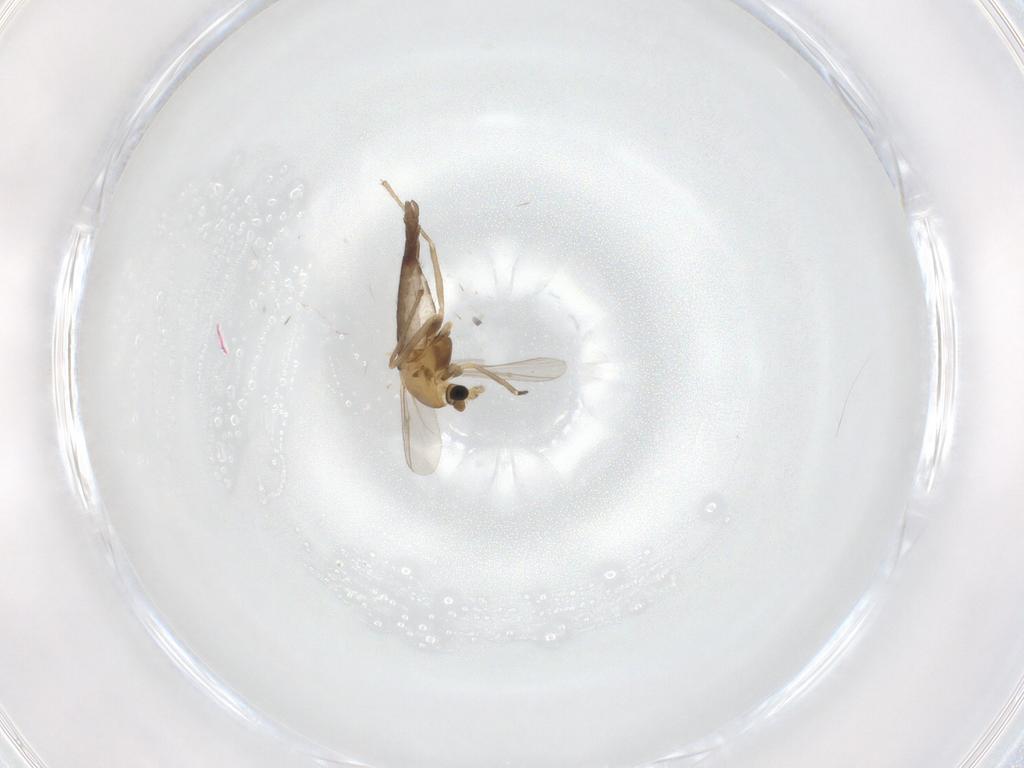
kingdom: Animalia
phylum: Arthropoda
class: Insecta
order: Diptera
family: Chironomidae
